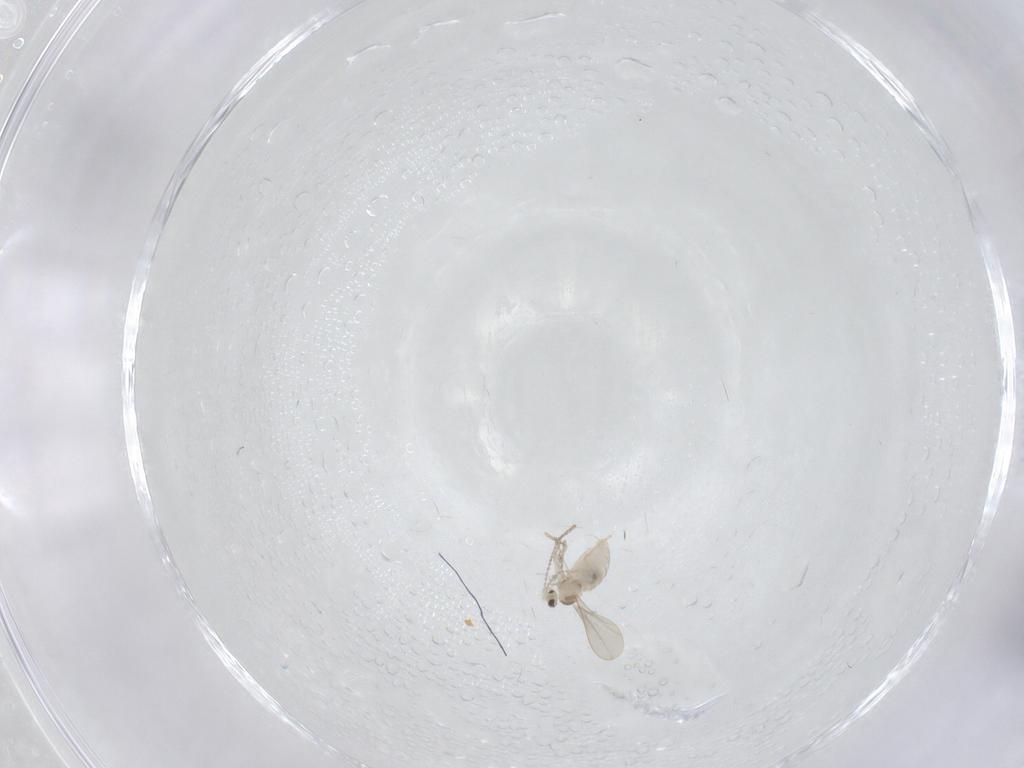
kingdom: Animalia
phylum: Arthropoda
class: Insecta
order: Diptera
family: Cecidomyiidae
